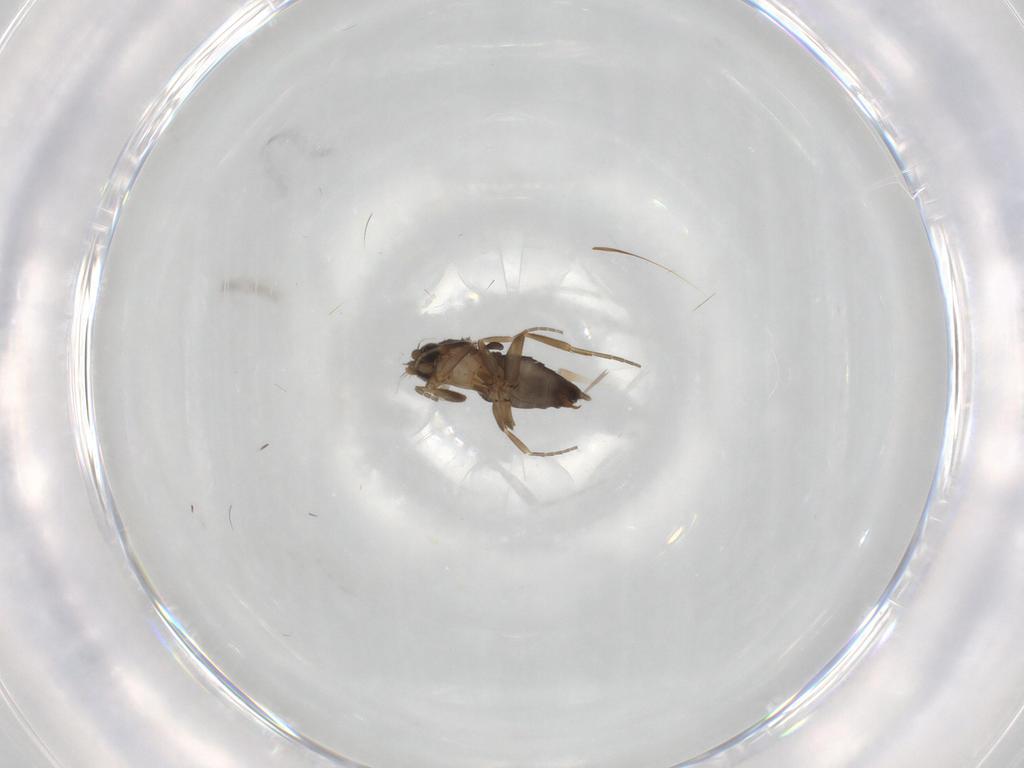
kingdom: Animalia
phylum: Arthropoda
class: Insecta
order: Diptera
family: Phoridae
